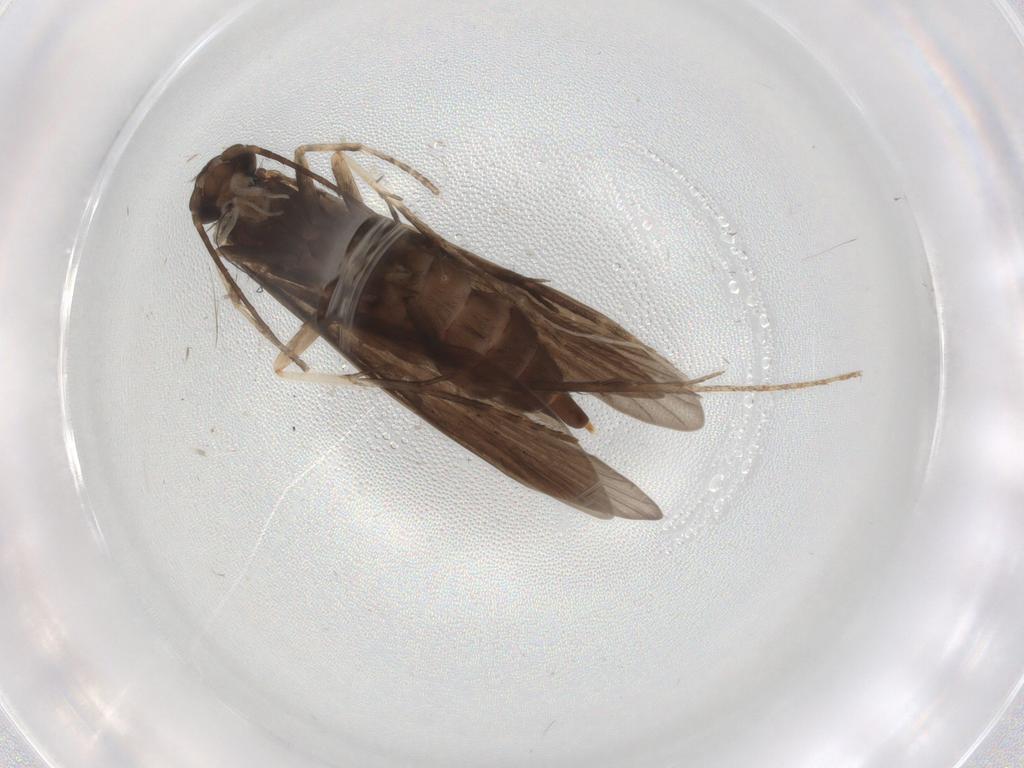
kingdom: Animalia
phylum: Arthropoda
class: Insecta
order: Trichoptera
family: Xiphocentronidae
